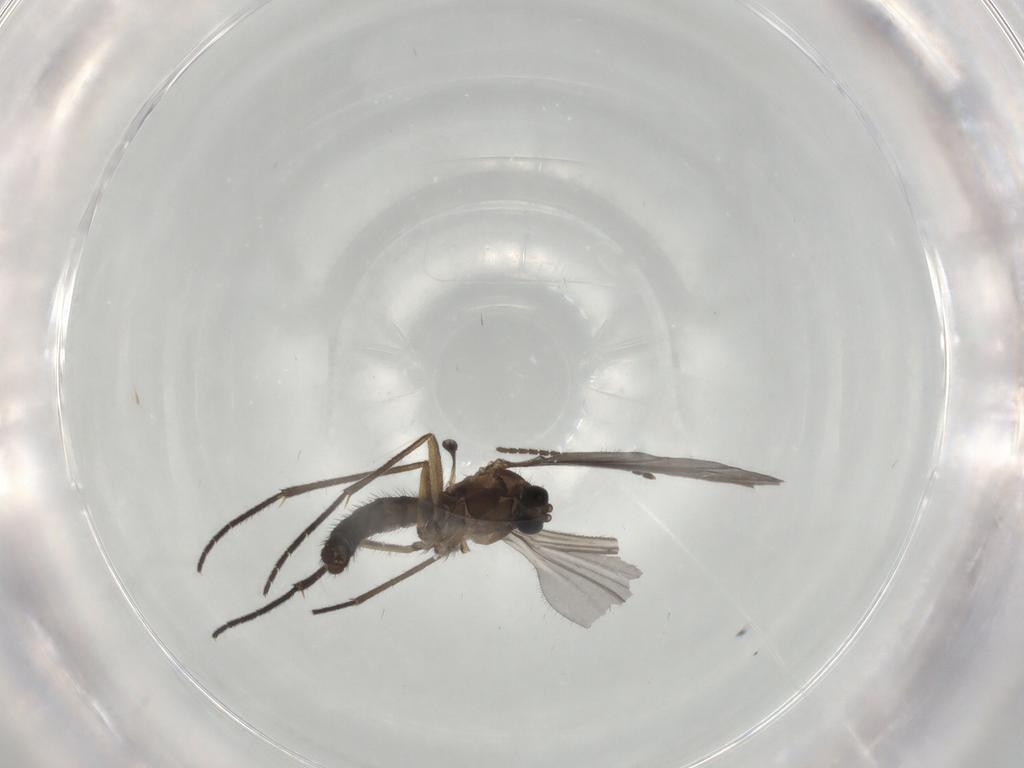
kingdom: Animalia
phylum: Arthropoda
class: Insecta
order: Diptera
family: Sciaridae
